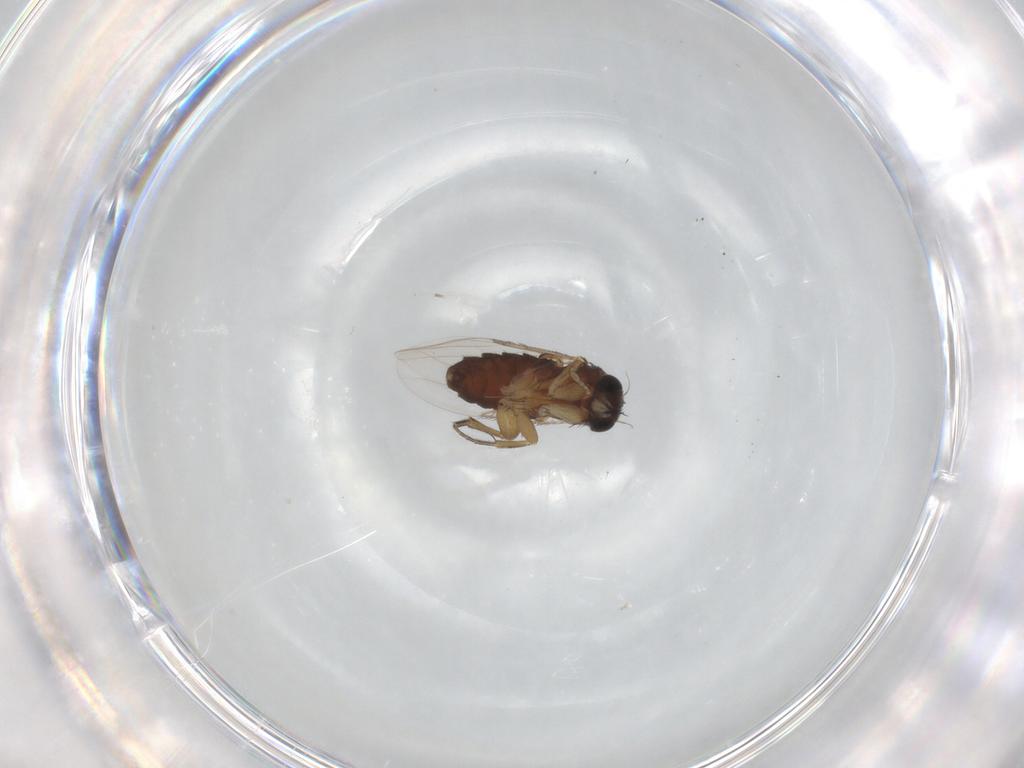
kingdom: Animalia
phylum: Arthropoda
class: Insecta
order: Diptera
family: Phoridae
